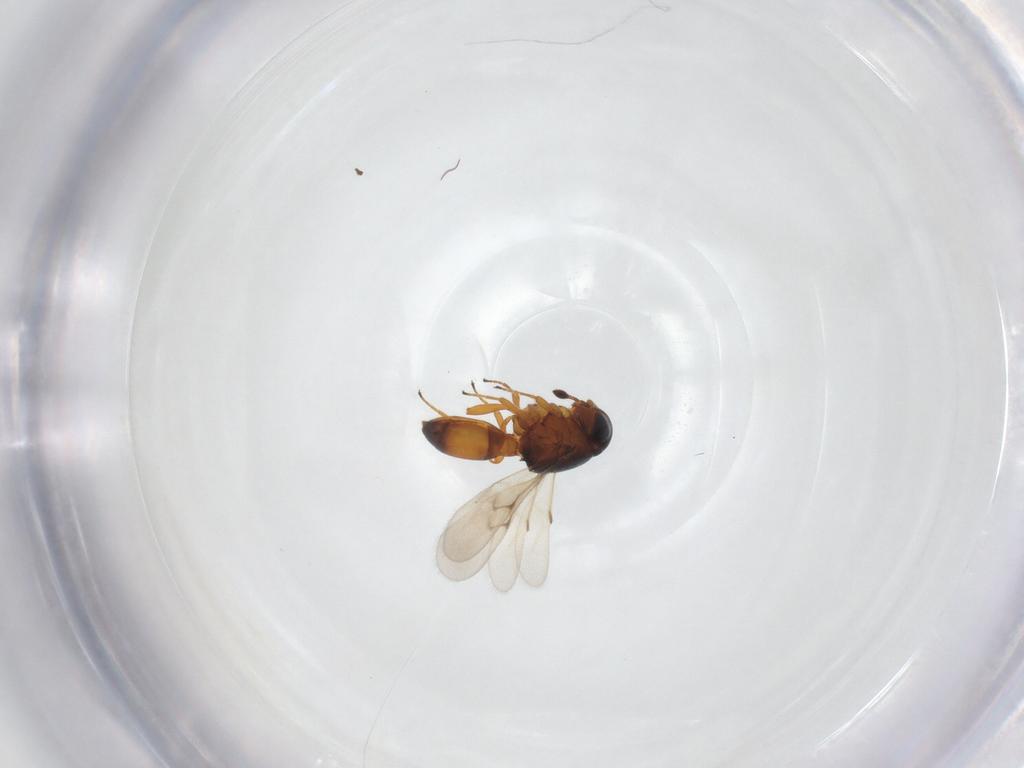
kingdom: Animalia
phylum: Arthropoda
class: Arachnida
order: Araneae
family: Pholcidae
